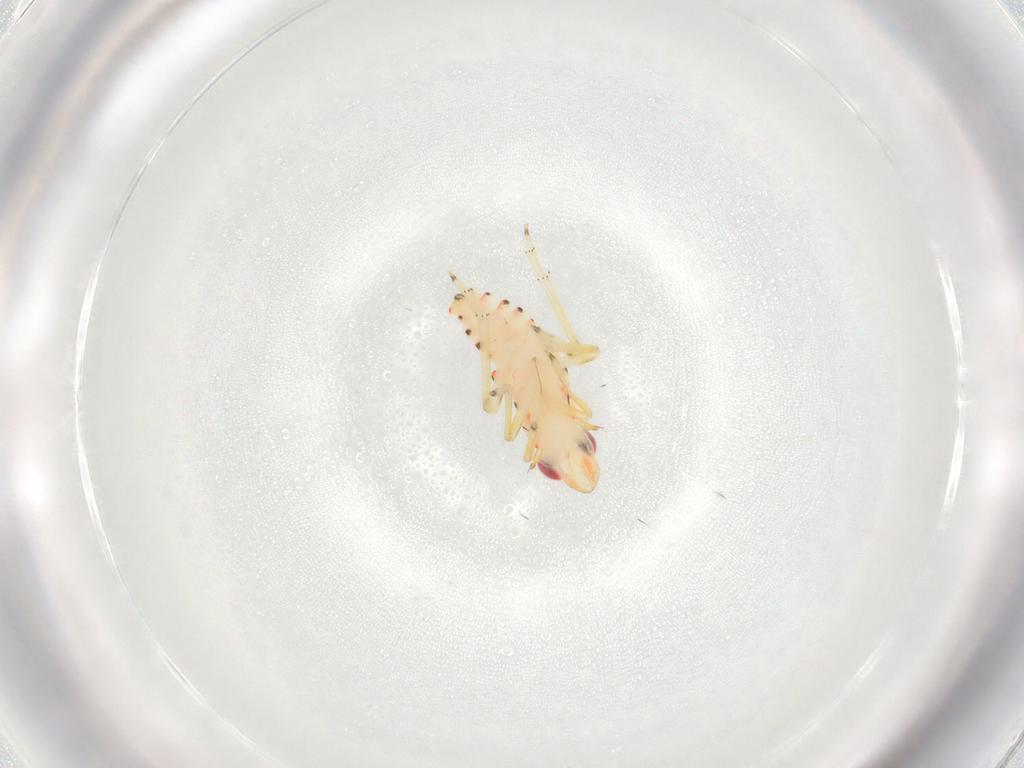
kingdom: Animalia
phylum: Arthropoda
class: Insecta
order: Hemiptera
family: Tropiduchidae
